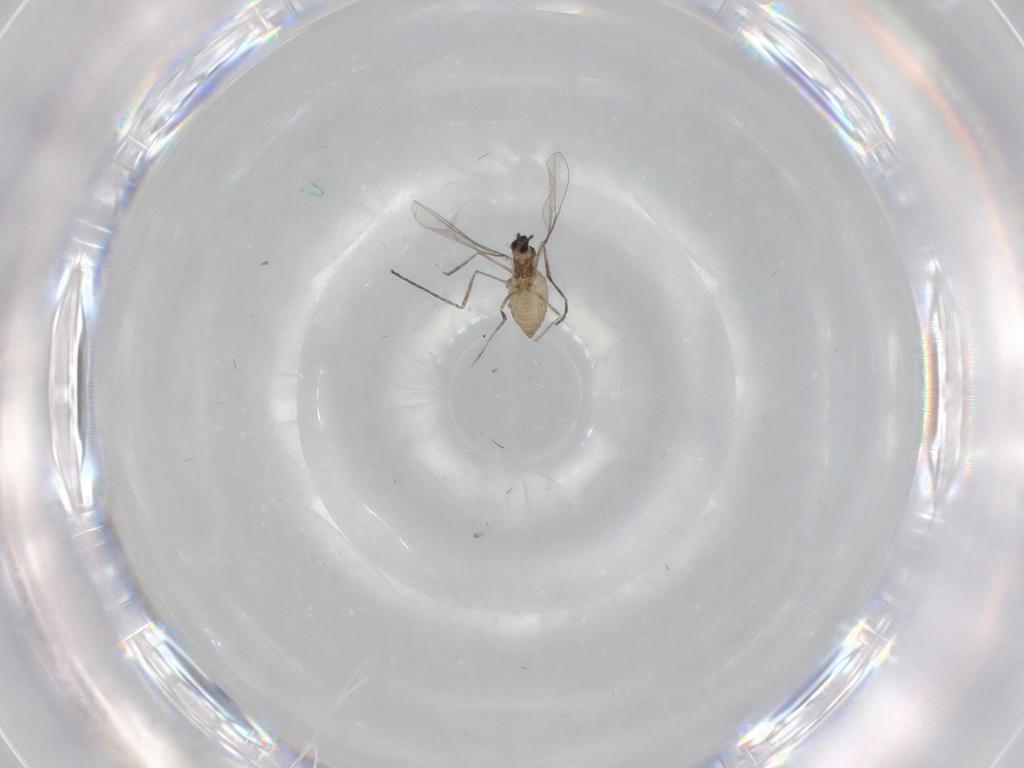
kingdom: Animalia
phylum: Arthropoda
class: Insecta
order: Diptera
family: Cecidomyiidae
